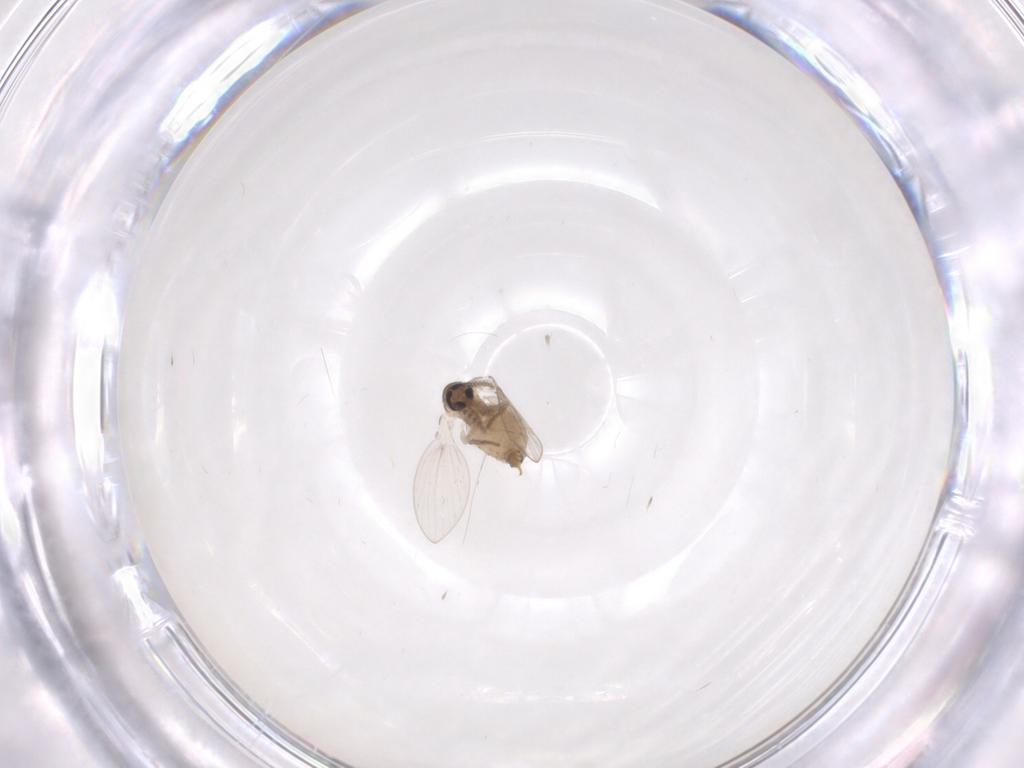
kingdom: Animalia
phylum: Arthropoda
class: Insecta
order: Diptera
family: Psychodidae
